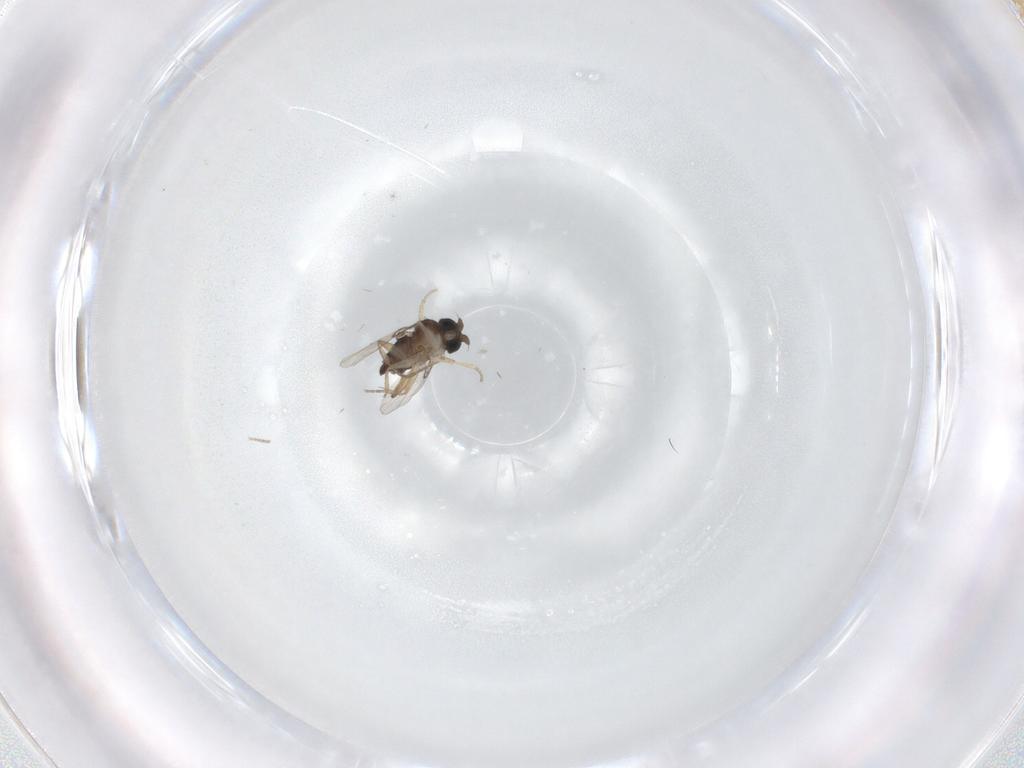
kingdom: Animalia
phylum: Arthropoda
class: Insecta
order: Diptera
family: Phoridae
